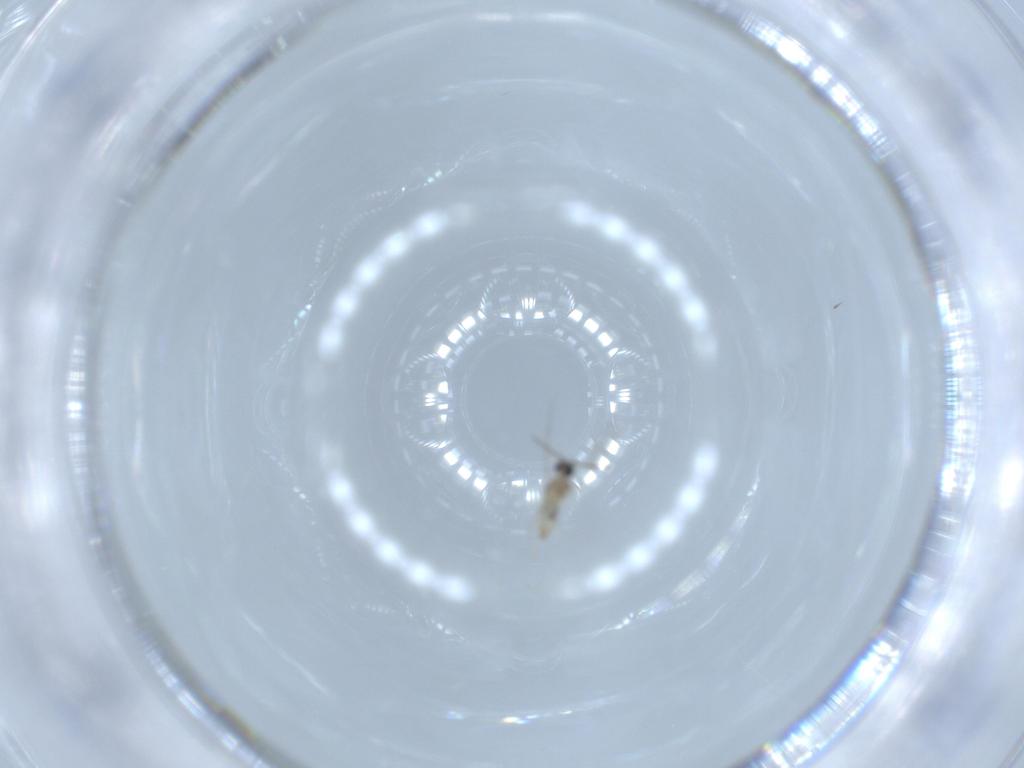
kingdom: Animalia
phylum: Arthropoda
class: Insecta
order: Diptera
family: Cecidomyiidae
